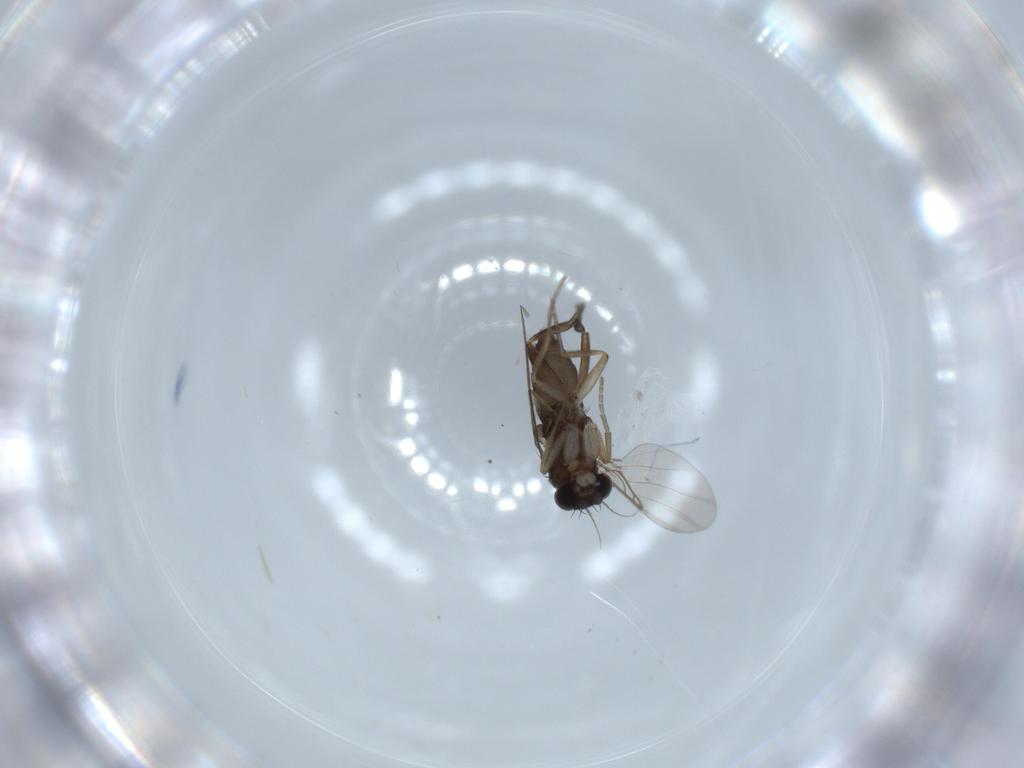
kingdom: Animalia
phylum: Arthropoda
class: Insecta
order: Diptera
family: Phoridae
